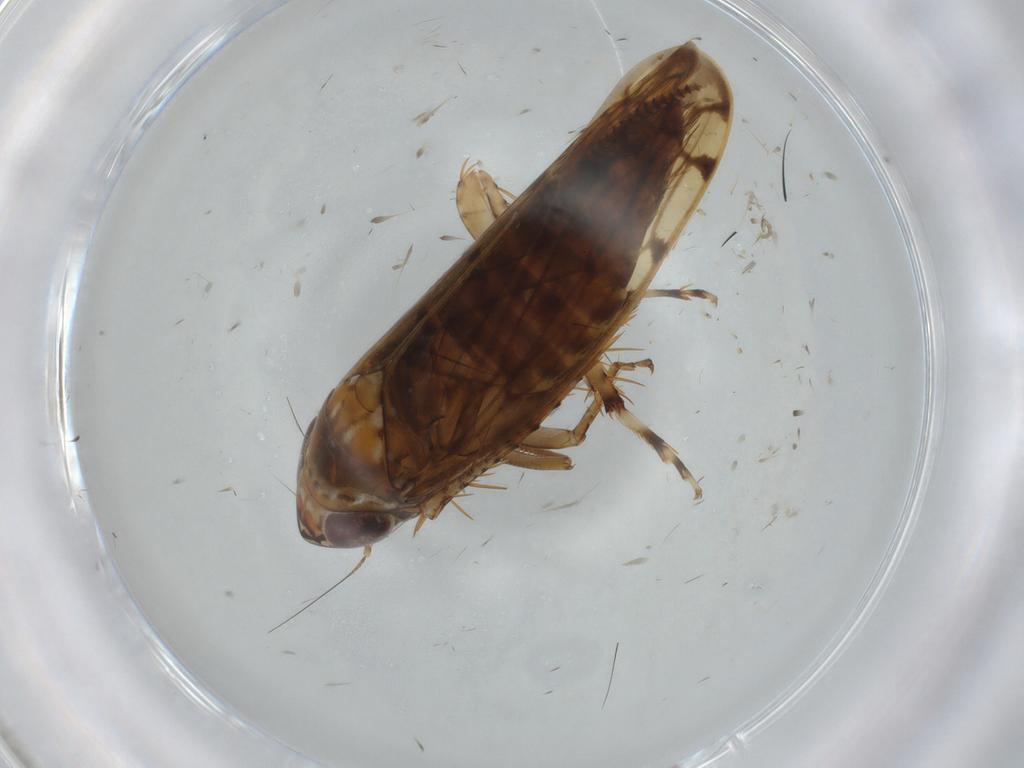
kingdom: Animalia
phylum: Arthropoda
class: Insecta
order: Hemiptera
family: Cicadellidae
